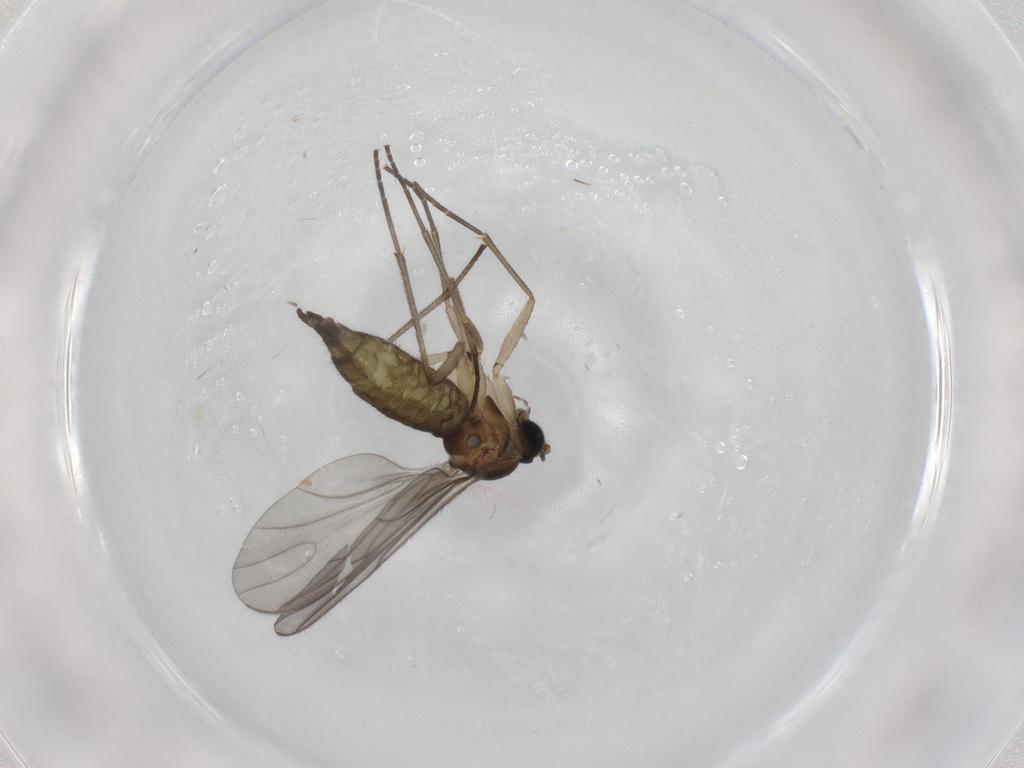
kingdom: Animalia
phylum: Arthropoda
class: Insecta
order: Diptera
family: Sciaridae
